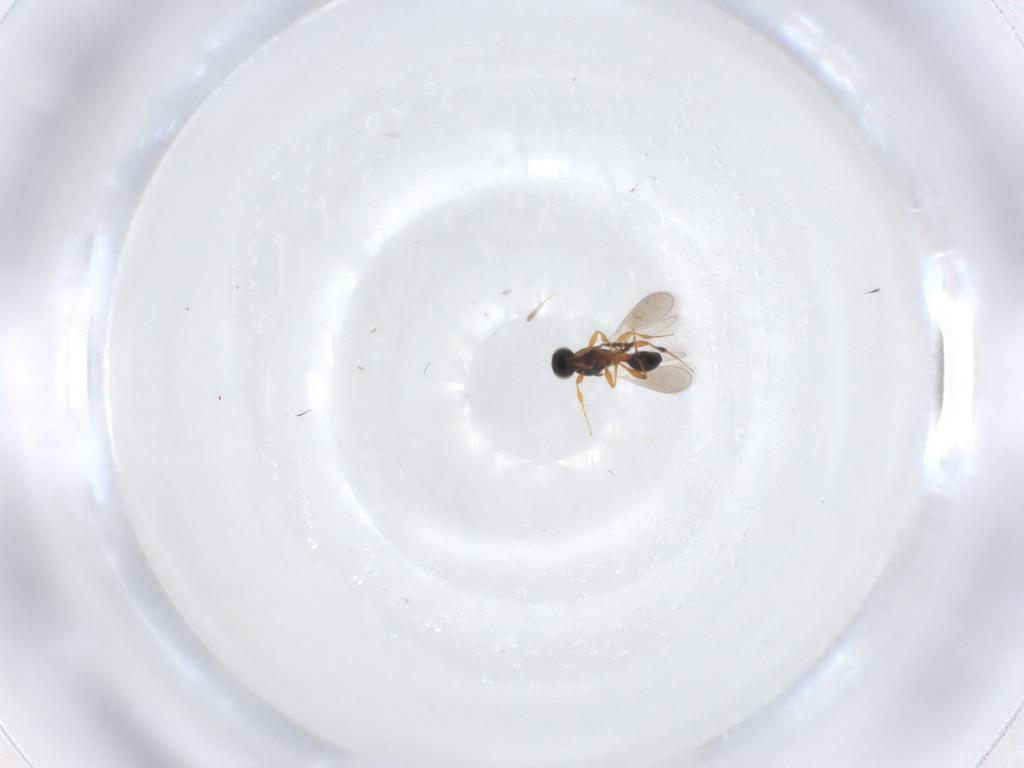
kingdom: Animalia
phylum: Arthropoda
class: Insecta
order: Hymenoptera
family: Platygastridae
